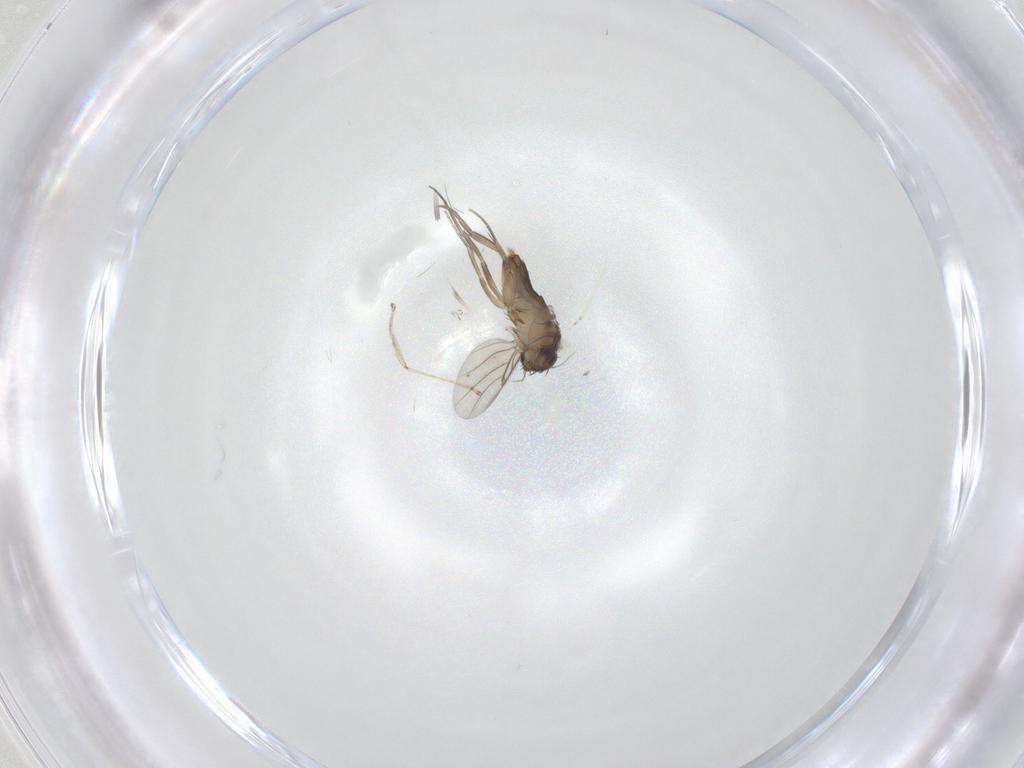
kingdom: Animalia
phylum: Arthropoda
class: Insecta
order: Diptera
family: Cecidomyiidae
